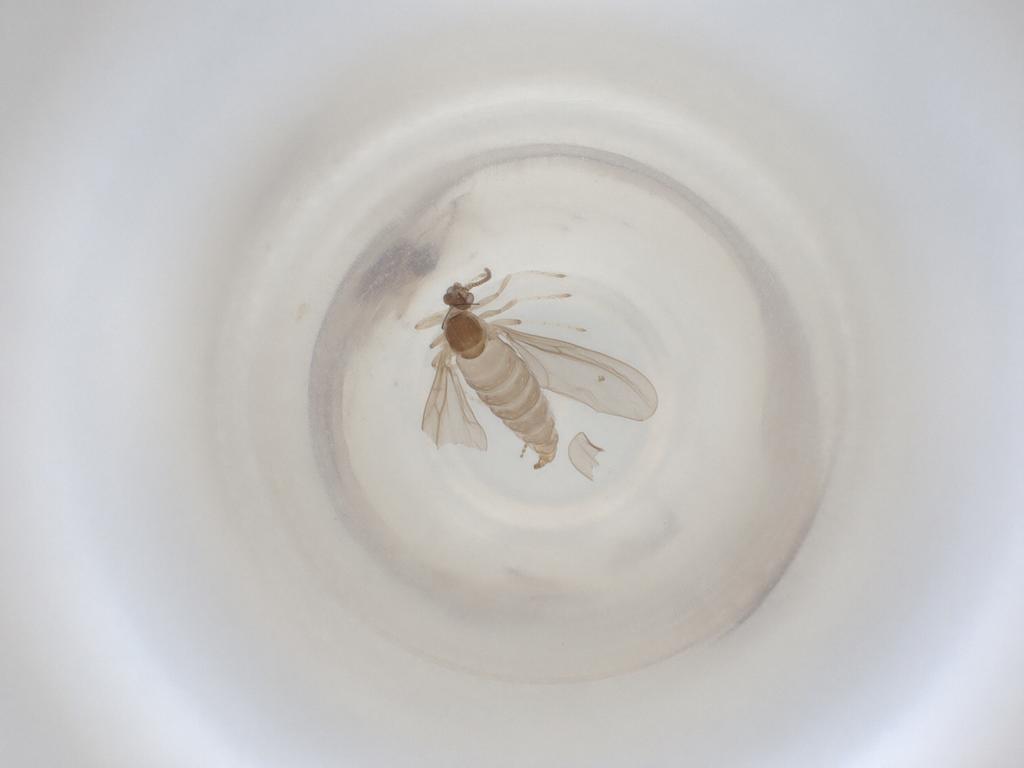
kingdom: Animalia
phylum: Arthropoda
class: Insecta
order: Diptera
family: Cecidomyiidae
